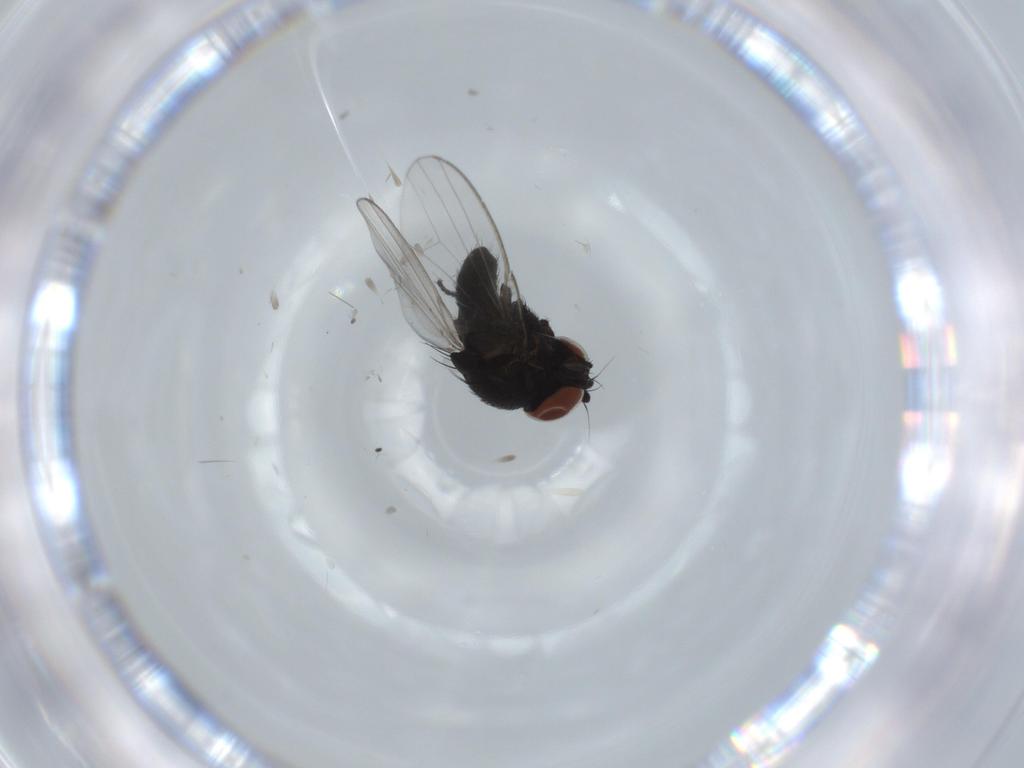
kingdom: Animalia
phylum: Arthropoda
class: Insecta
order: Diptera
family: Milichiidae
